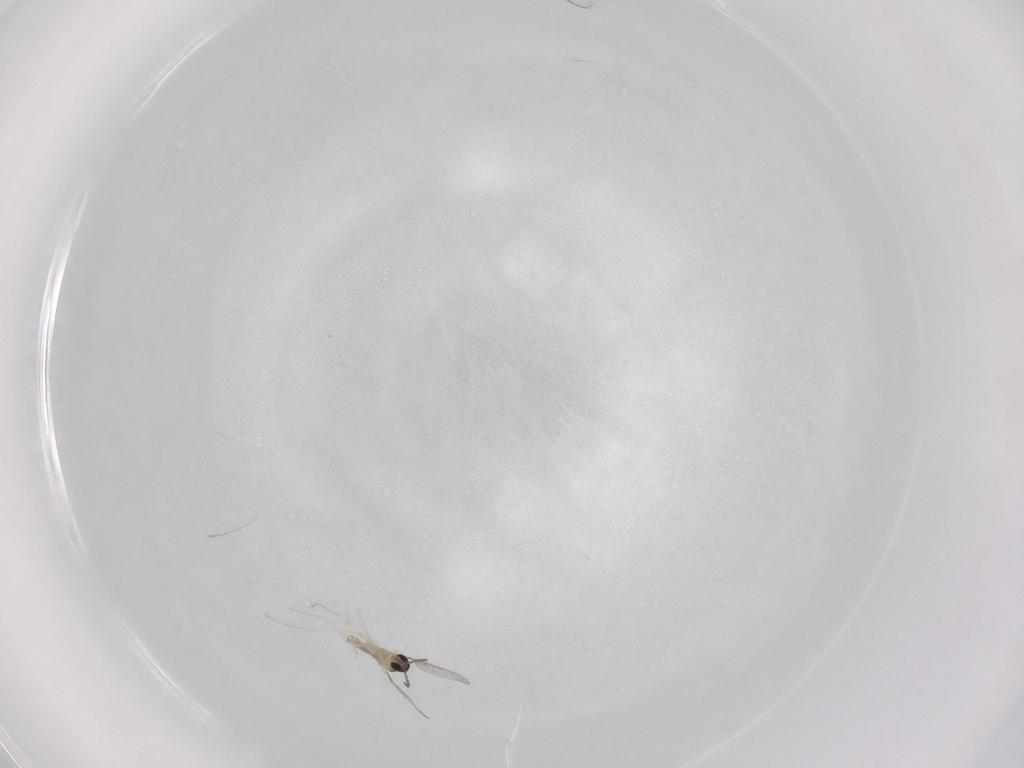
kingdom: Animalia
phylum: Arthropoda
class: Insecta
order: Diptera
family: Cecidomyiidae
